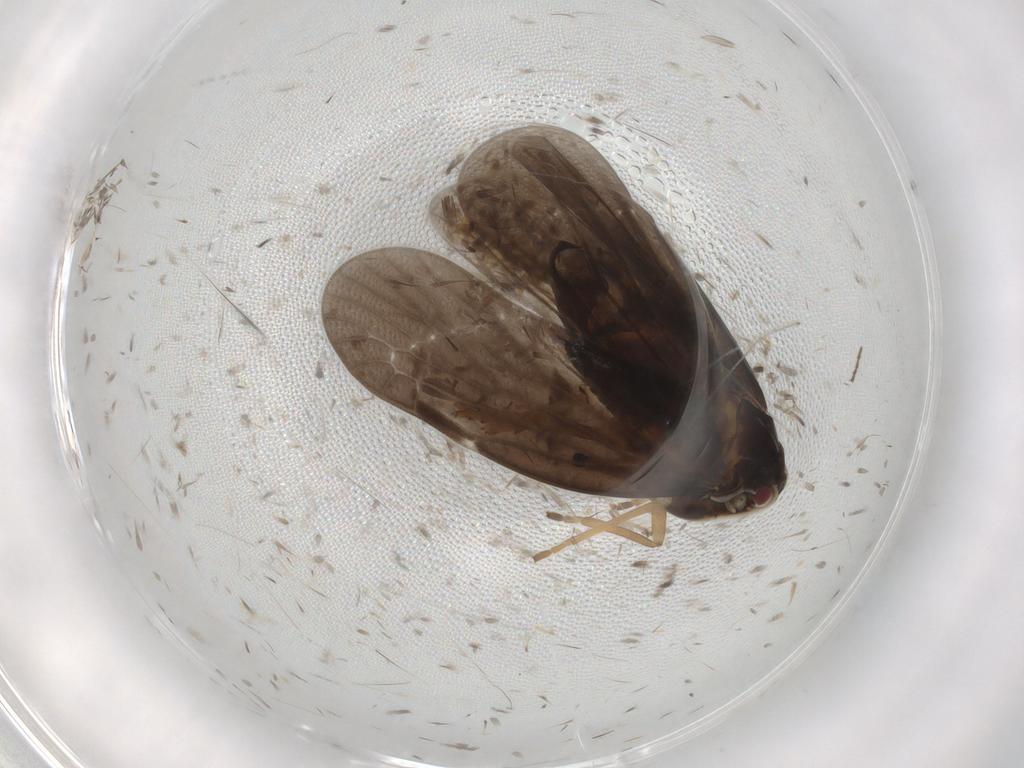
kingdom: Animalia
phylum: Arthropoda
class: Insecta
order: Hemiptera
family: Derbidae
